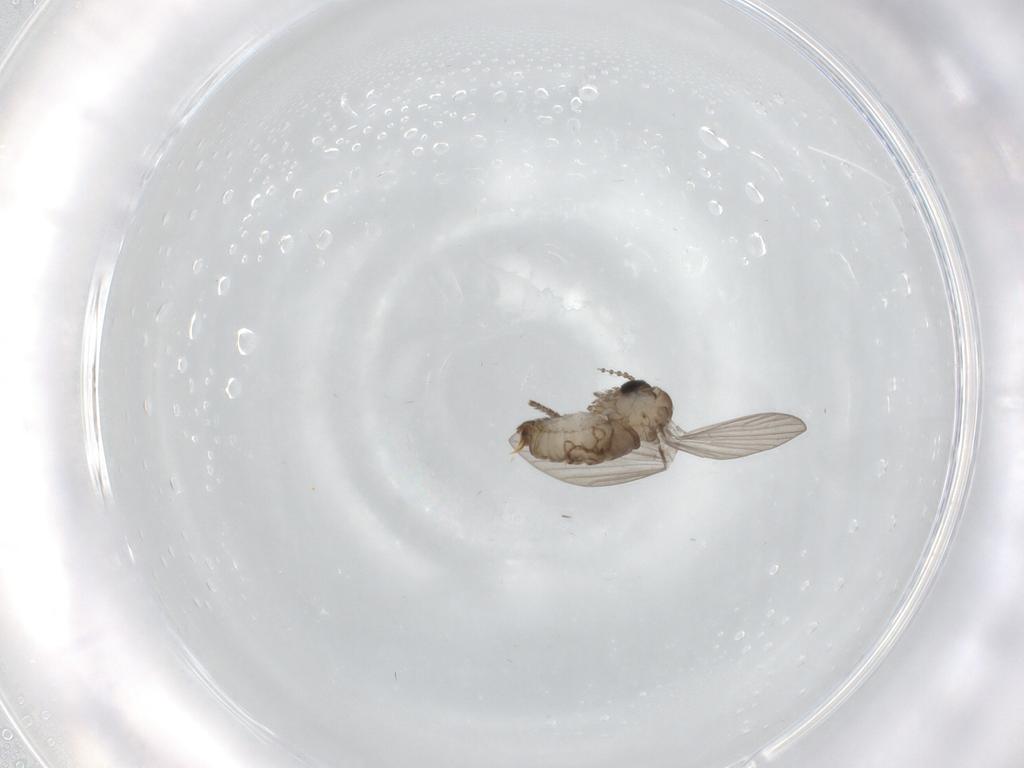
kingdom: Animalia
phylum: Arthropoda
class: Insecta
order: Diptera
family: Psychodidae
